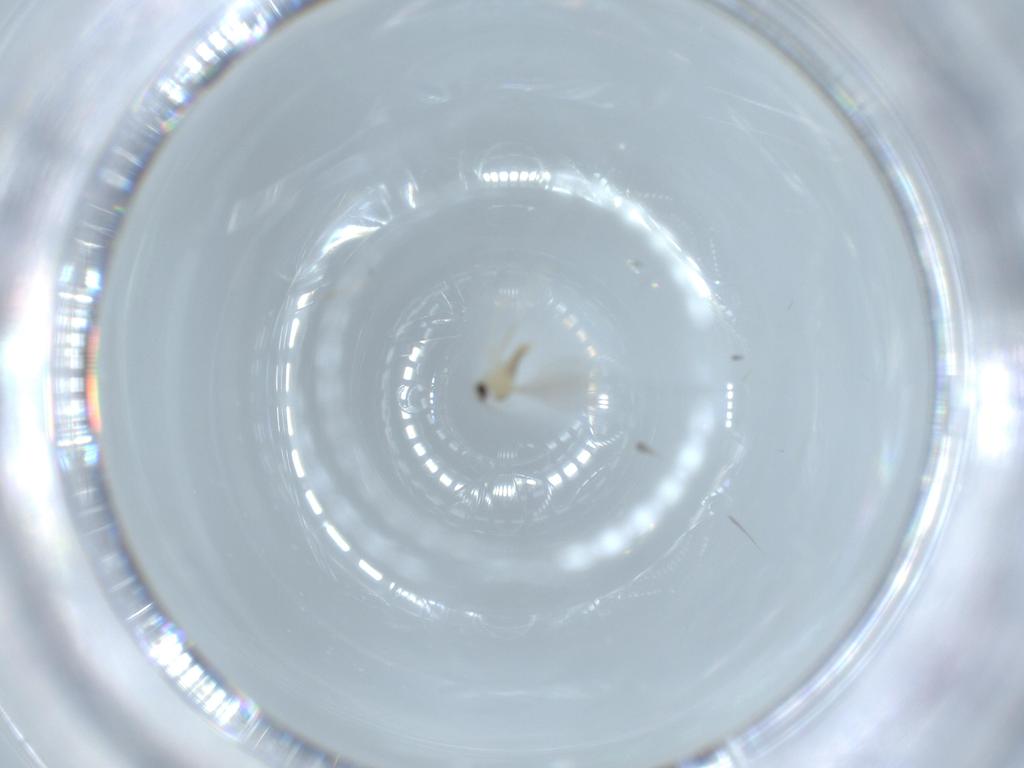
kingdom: Animalia
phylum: Arthropoda
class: Insecta
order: Diptera
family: Cecidomyiidae
